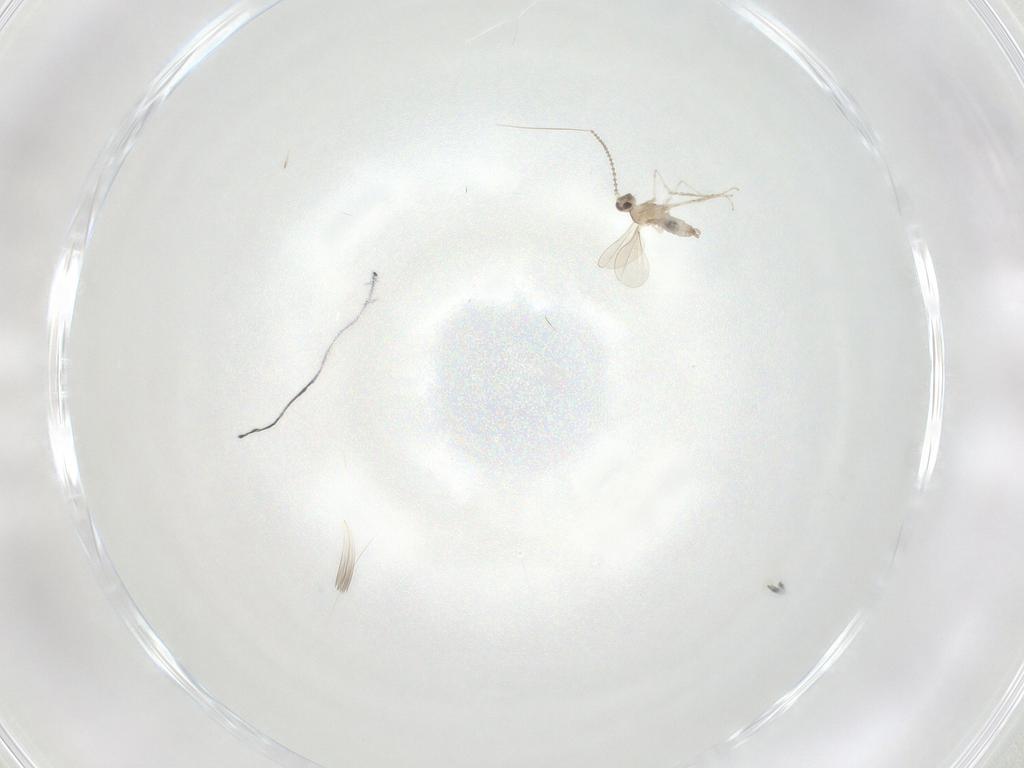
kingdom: Animalia
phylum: Arthropoda
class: Insecta
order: Diptera
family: Cecidomyiidae
